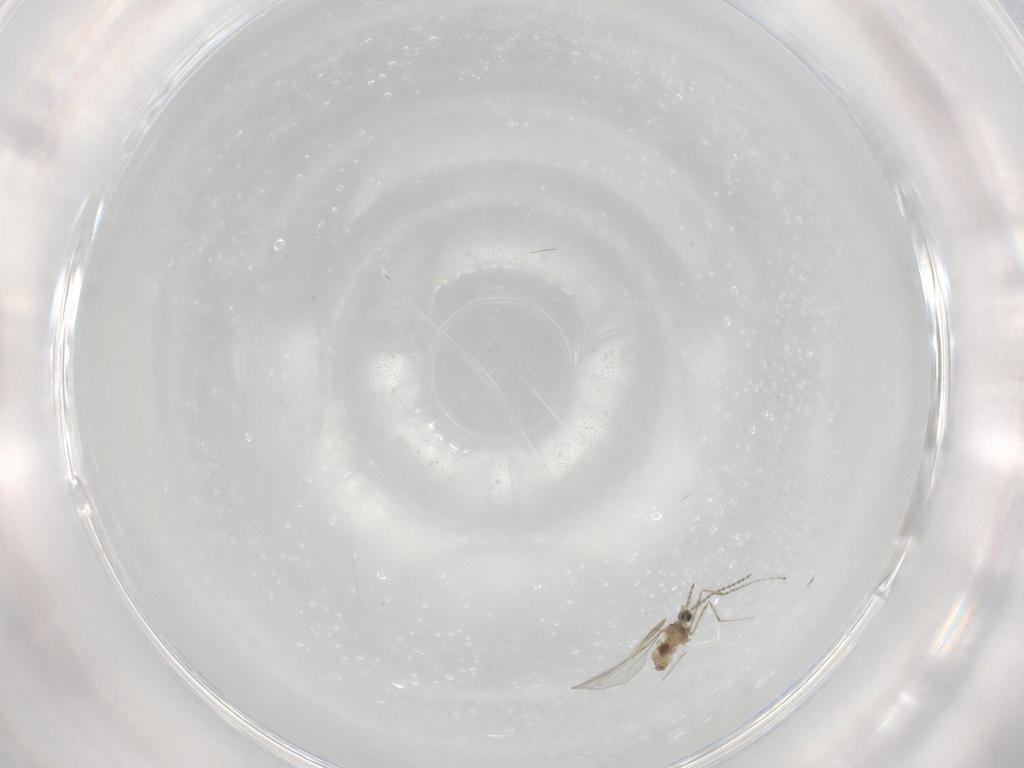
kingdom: Animalia
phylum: Arthropoda
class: Insecta
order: Diptera
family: Cecidomyiidae
